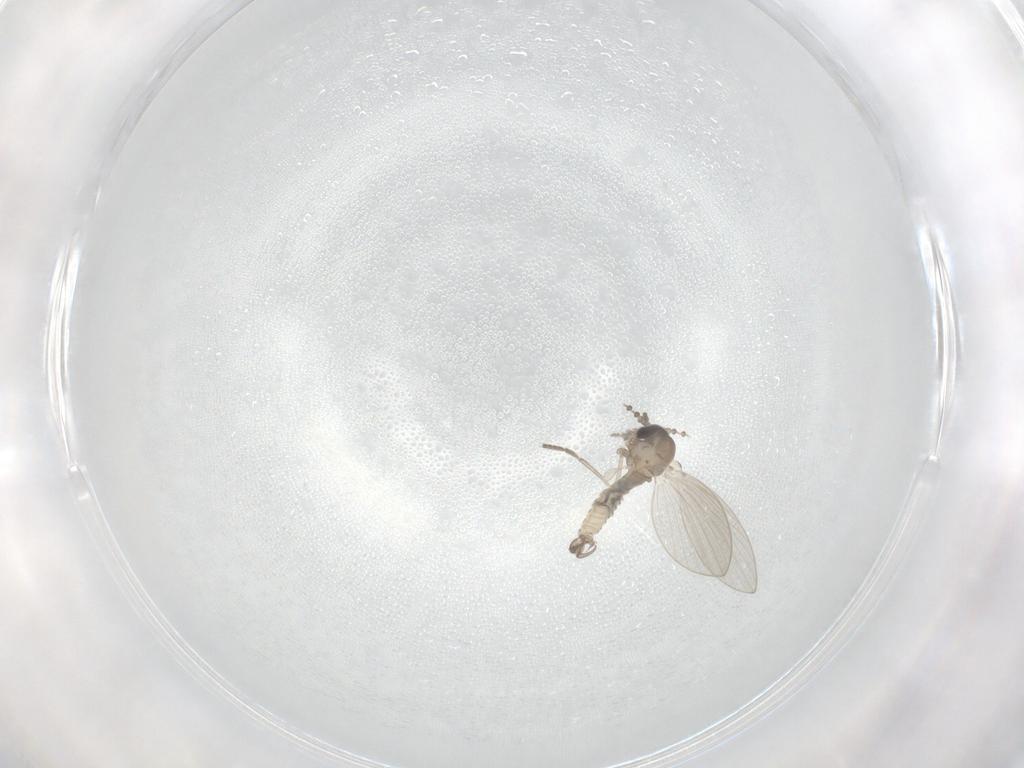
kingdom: Animalia
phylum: Arthropoda
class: Insecta
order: Diptera
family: Psychodidae
